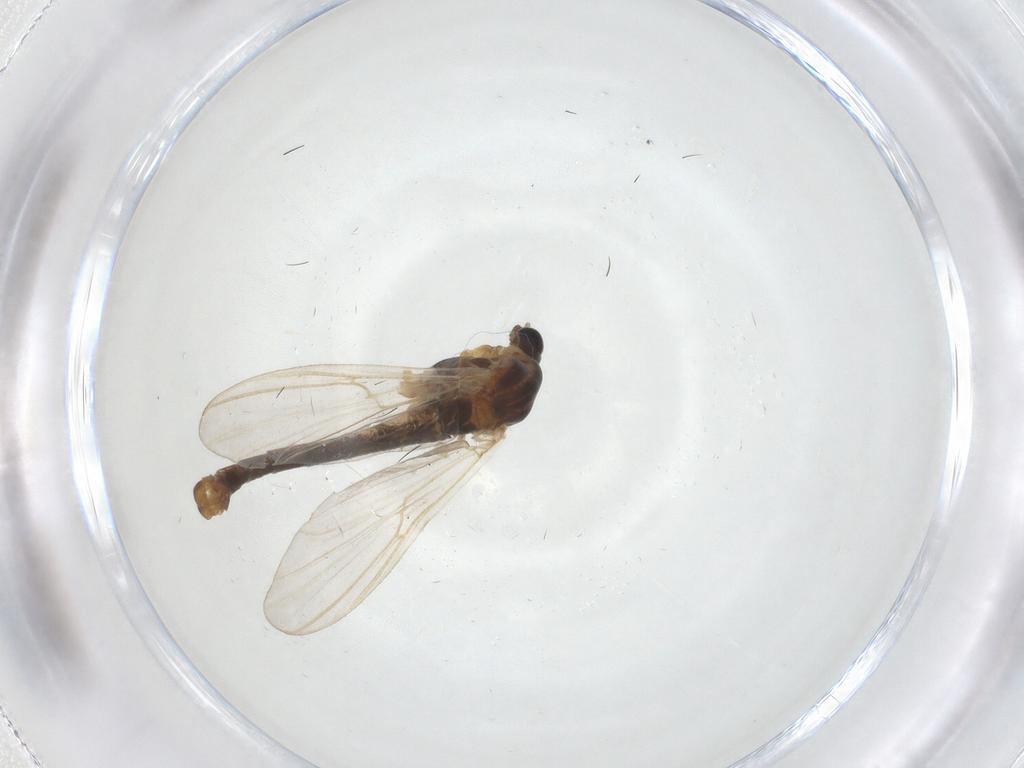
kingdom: Animalia
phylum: Arthropoda
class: Insecta
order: Diptera
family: Chironomidae
